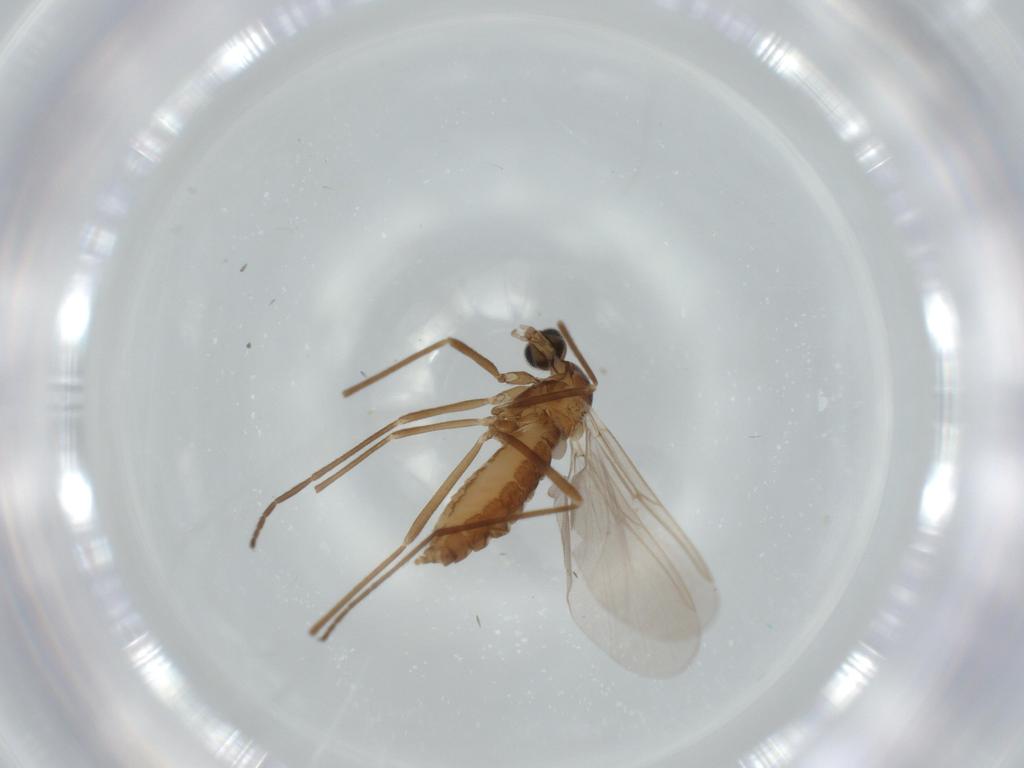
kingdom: Animalia
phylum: Arthropoda
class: Insecta
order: Diptera
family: Cecidomyiidae
